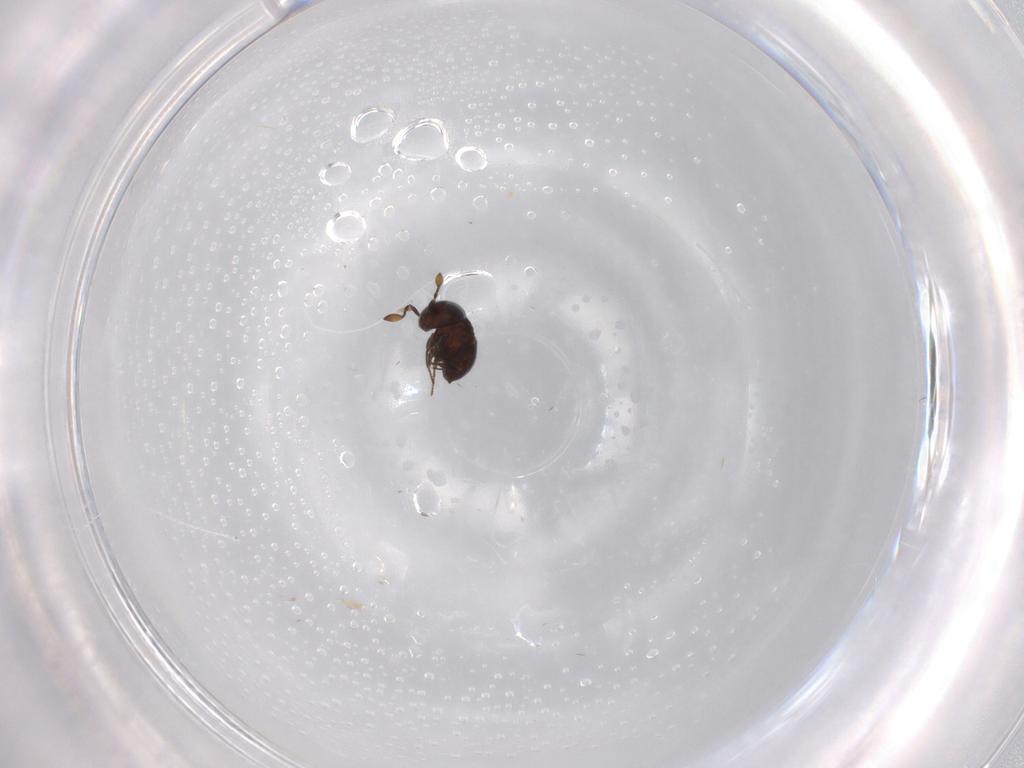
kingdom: Animalia
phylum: Arthropoda
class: Insecta
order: Hymenoptera
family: Scelionidae
